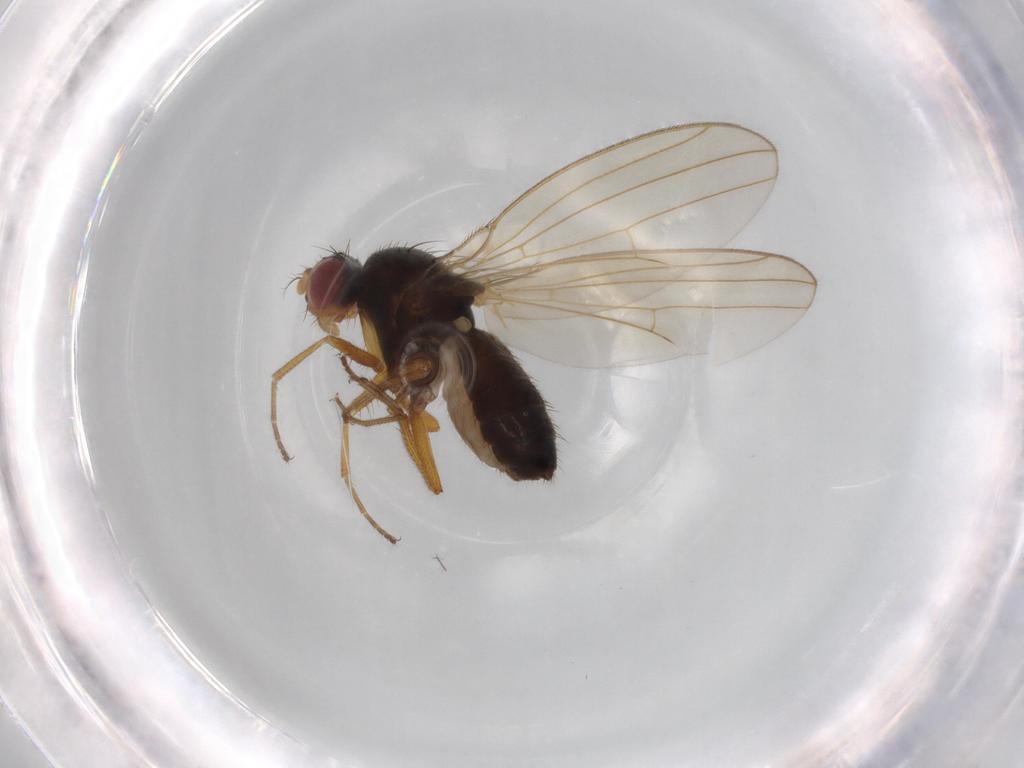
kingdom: Animalia
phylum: Arthropoda
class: Insecta
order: Diptera
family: Drosophilidae
